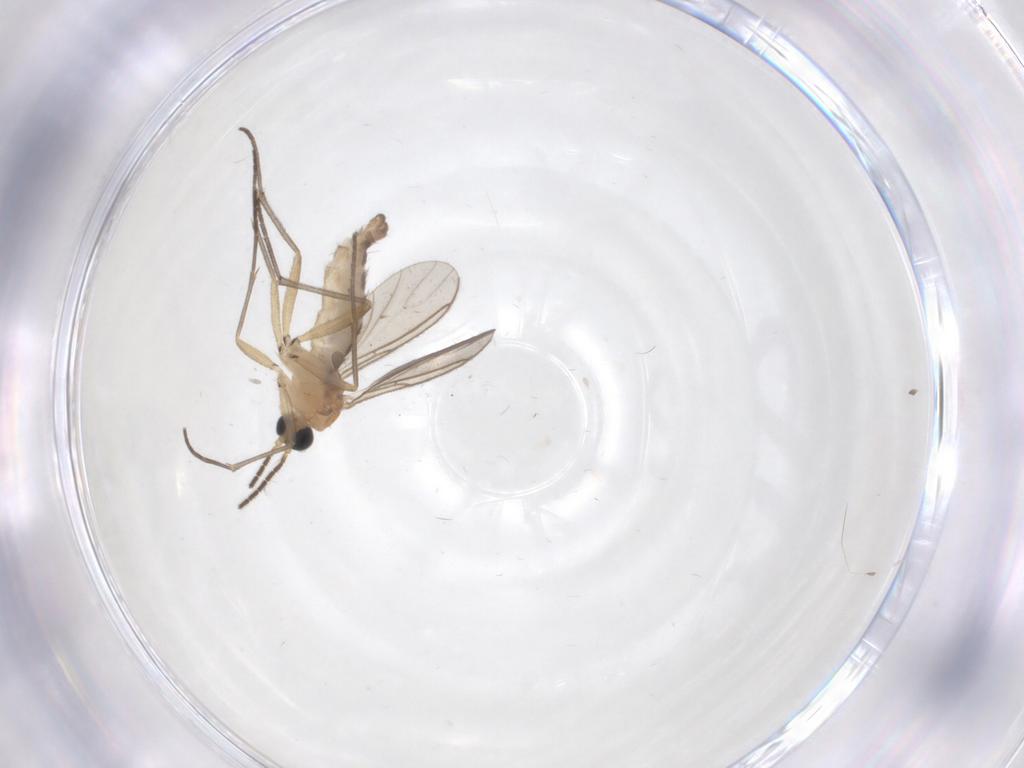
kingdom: Animalia
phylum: Arthropoda
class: Insecta
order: Diptera
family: Sciaridae
